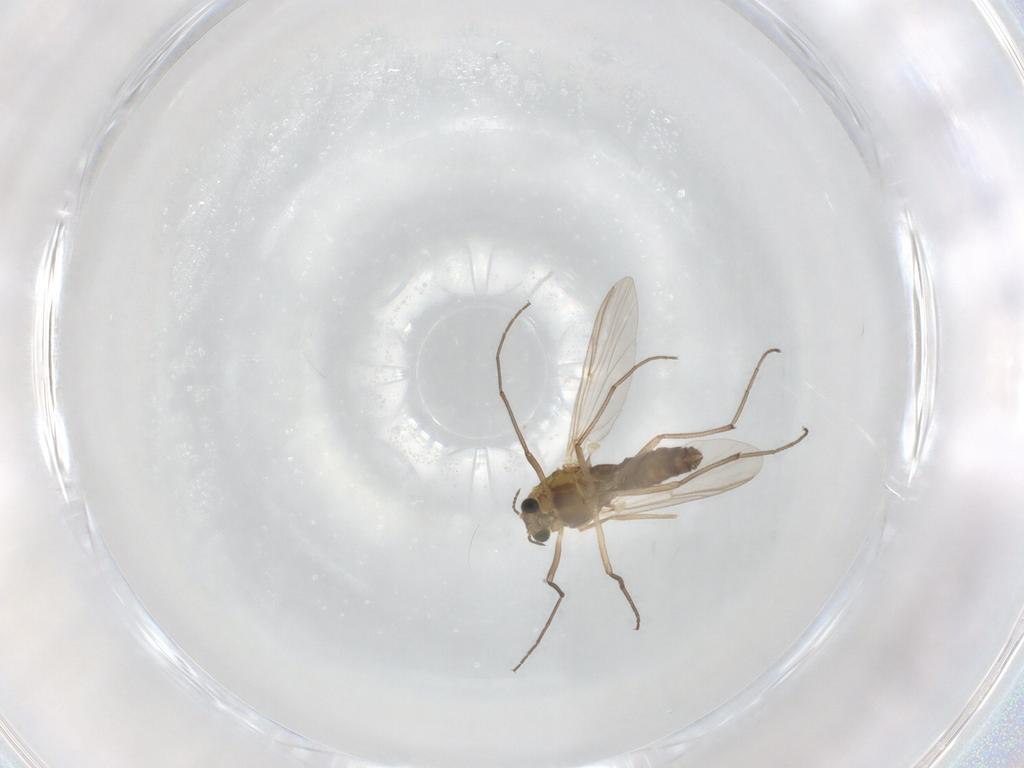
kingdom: Animalia
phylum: Arthropoda
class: Insecta
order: Diptera
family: Chironomidae
